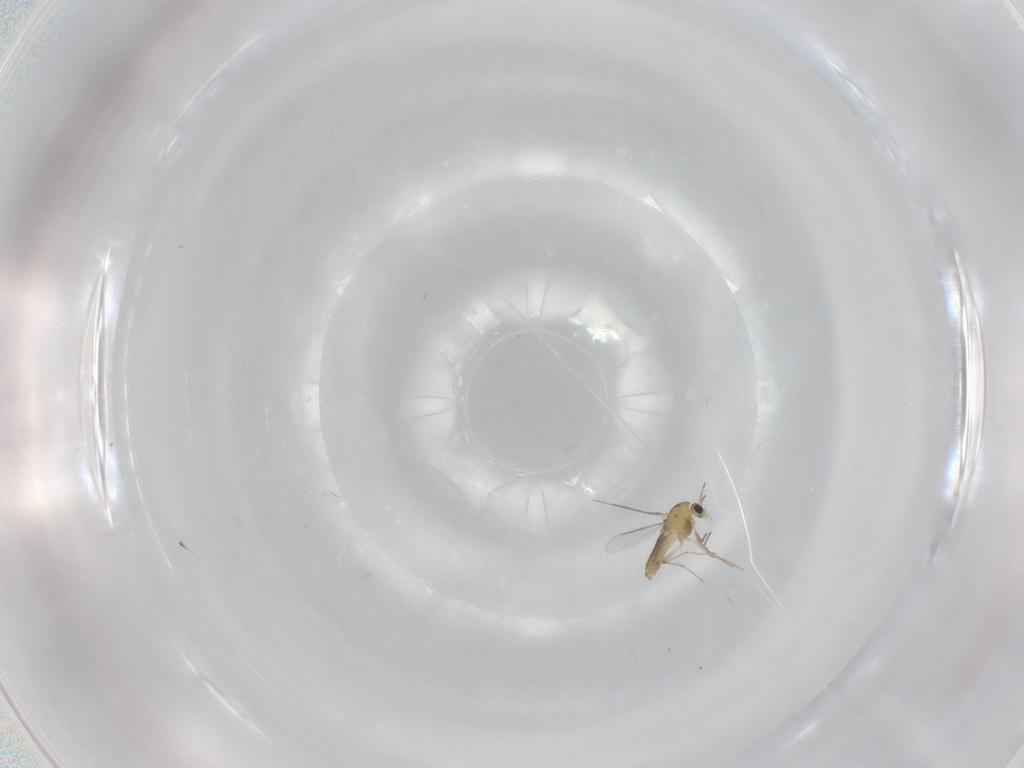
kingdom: Animalia
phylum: Arthropoda
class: Insecta
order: Diptera
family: Chironomidae
